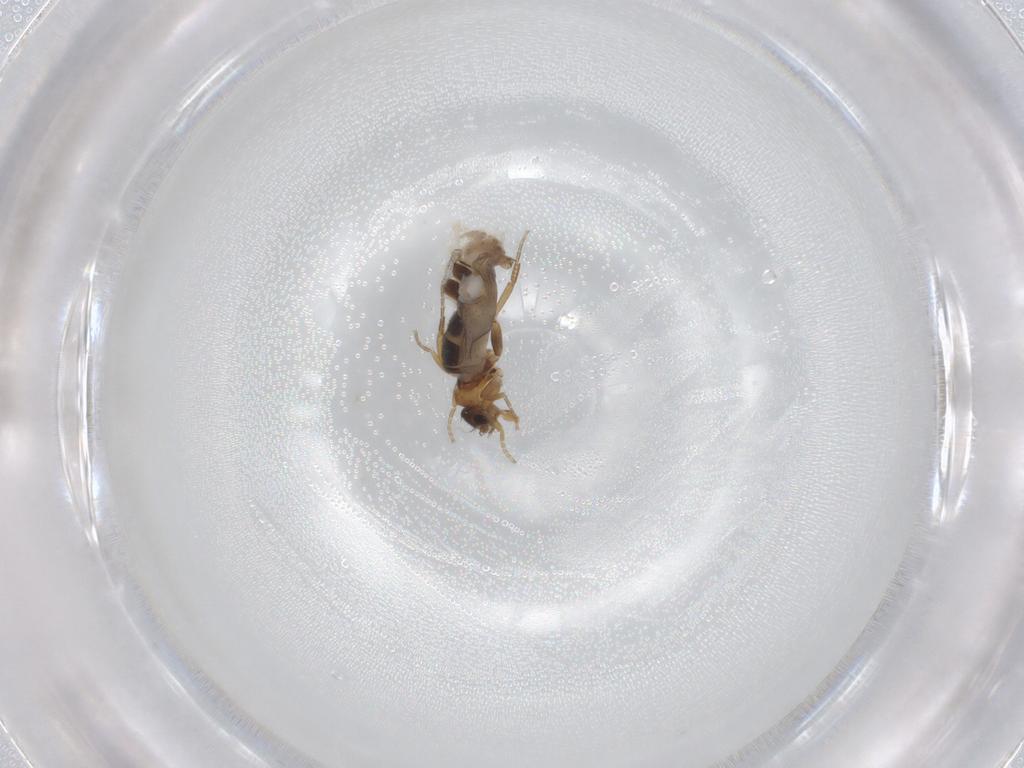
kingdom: Animalia
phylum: Arthropoda
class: Insecta
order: Diptera
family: Phoridae
